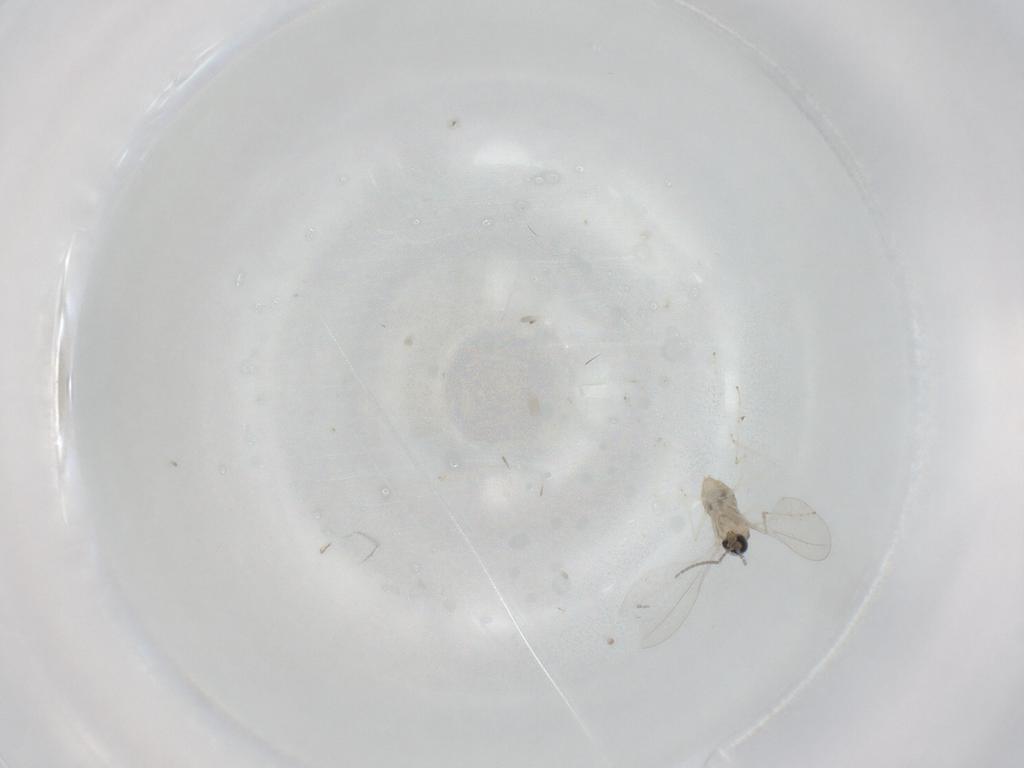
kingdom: Animalia
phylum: Arthropoda
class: Insecta
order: Diptera
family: Cecidomyiidae
